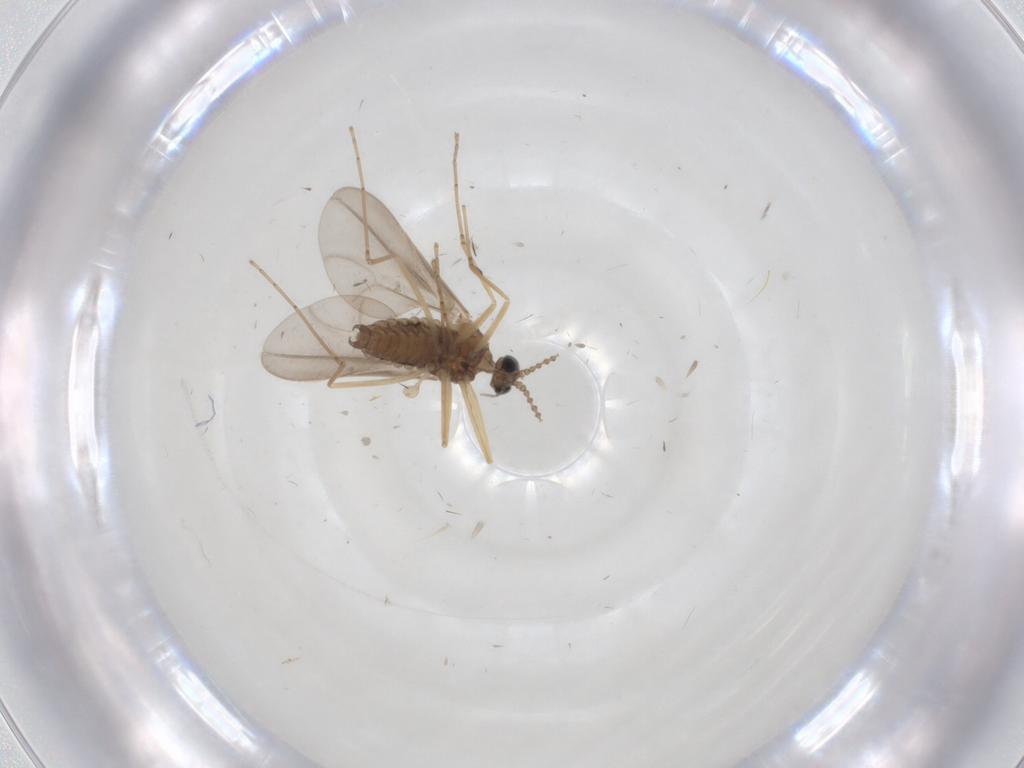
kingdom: Animalia
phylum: Arthropoda
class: Insecta
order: Diptera
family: Cecidomyiidae
